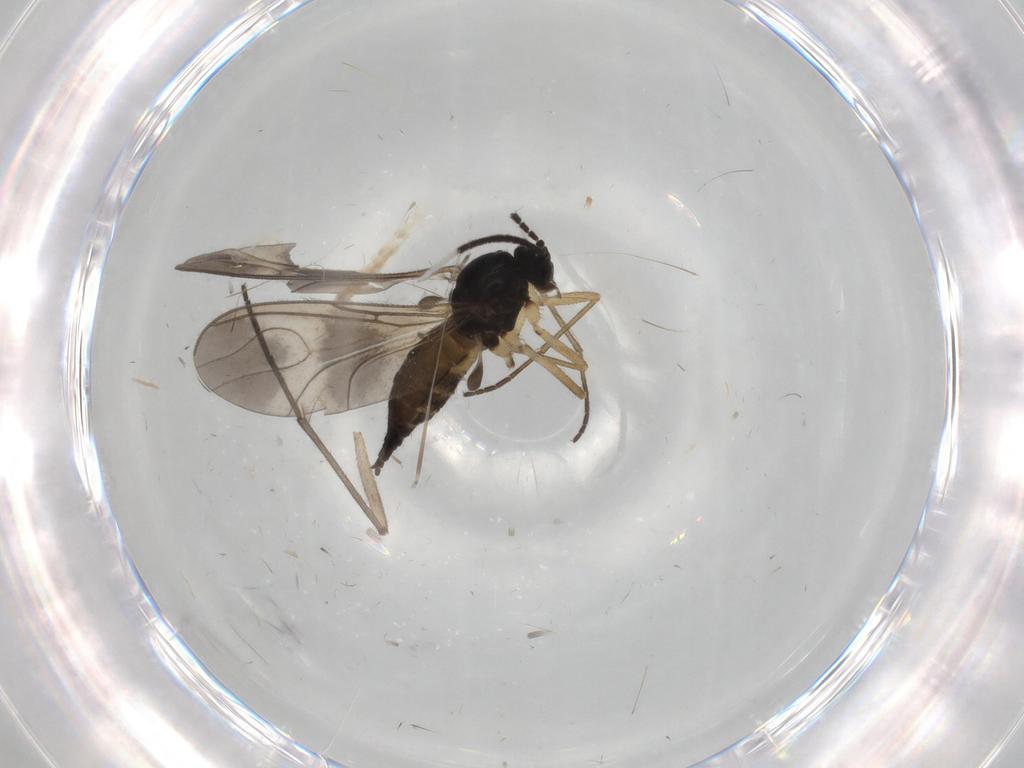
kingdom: Animalia
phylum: Arthropoda
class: Insecta
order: Diptera
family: Sciaridae
